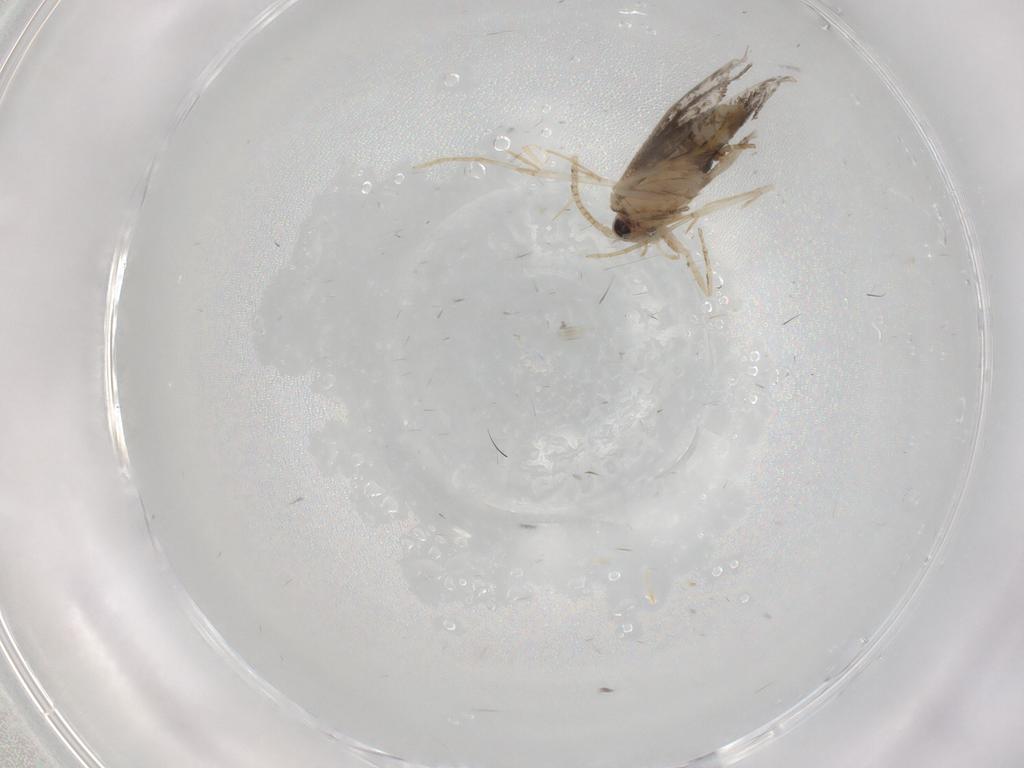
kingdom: Animalia
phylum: Arthropoda
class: Insecta
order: Lepidoptera
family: Tineidae
